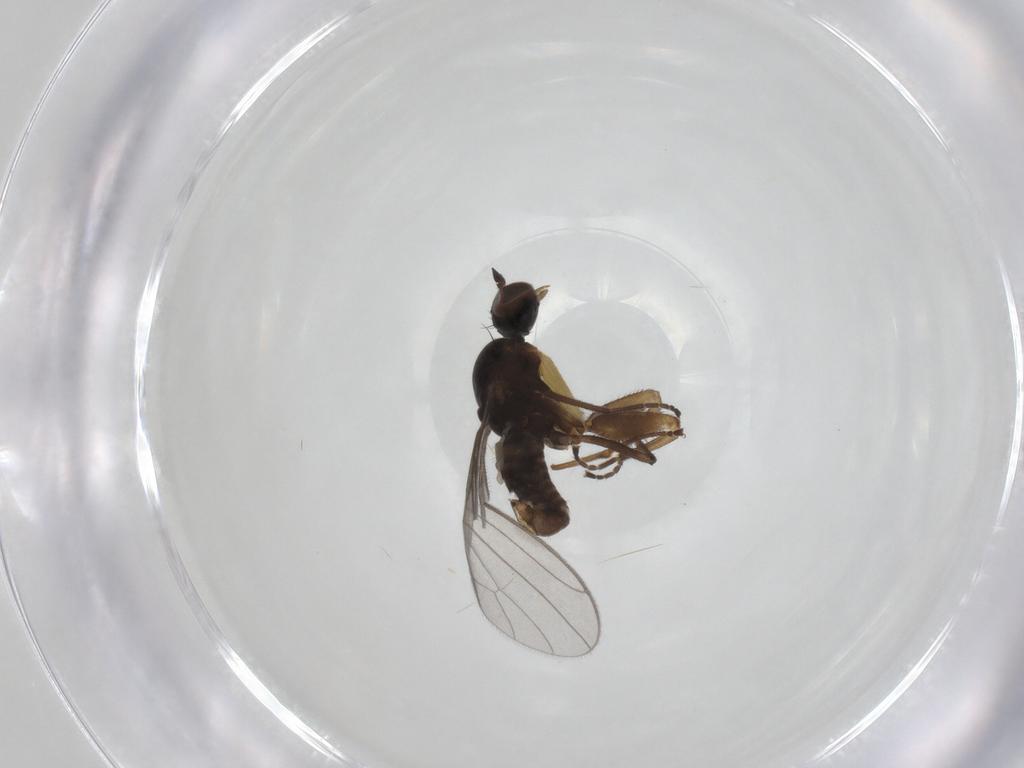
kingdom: Animalia
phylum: Arthropoda
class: Insecta
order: Diptera
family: Empididae
